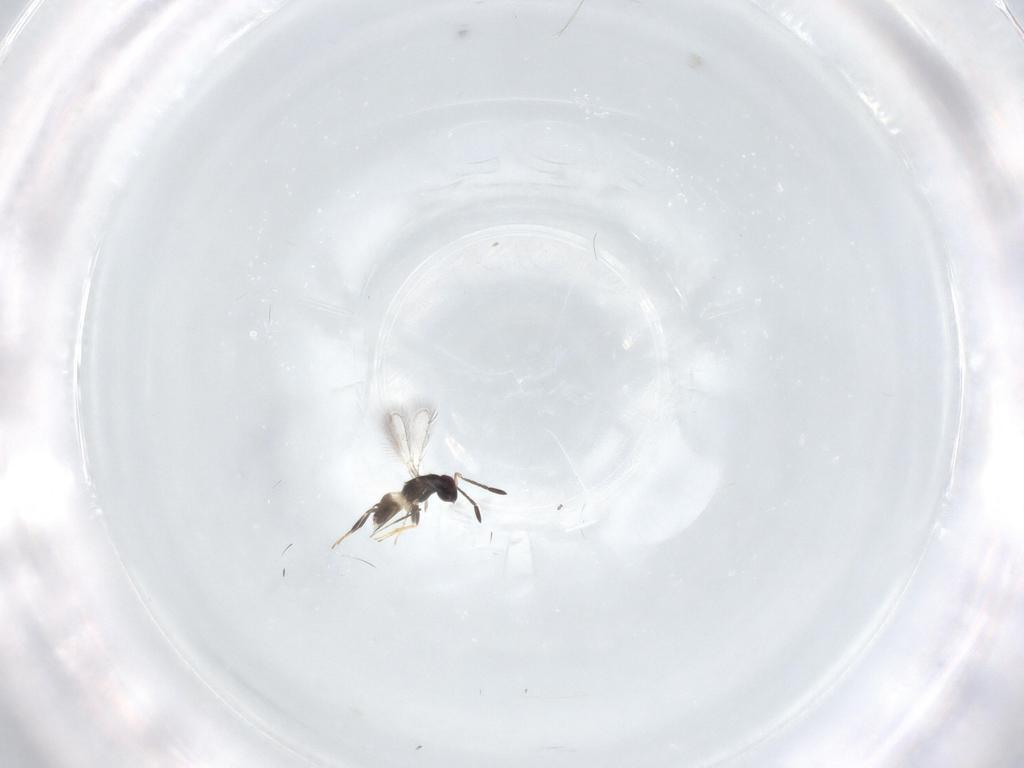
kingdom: Animalia
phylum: Arthropoda
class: Insecta
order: Hymenoptera
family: Mymaridae
